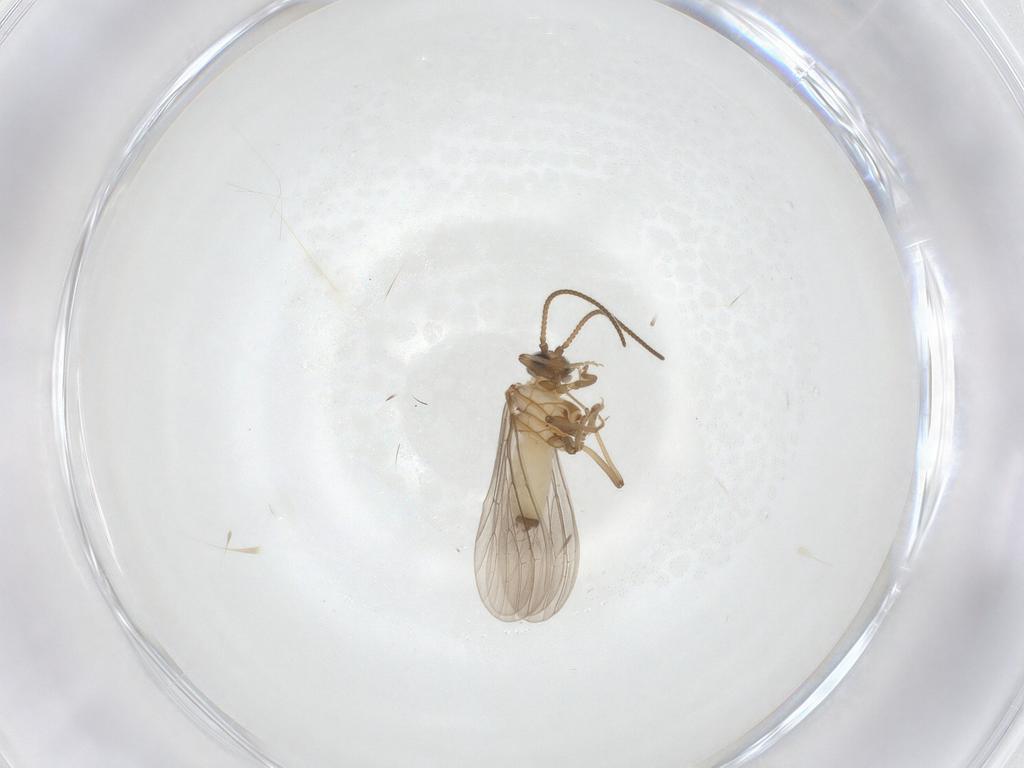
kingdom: Animalia
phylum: Arthropoda
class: Insecta
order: Neuroptera
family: Coniopterygidae
